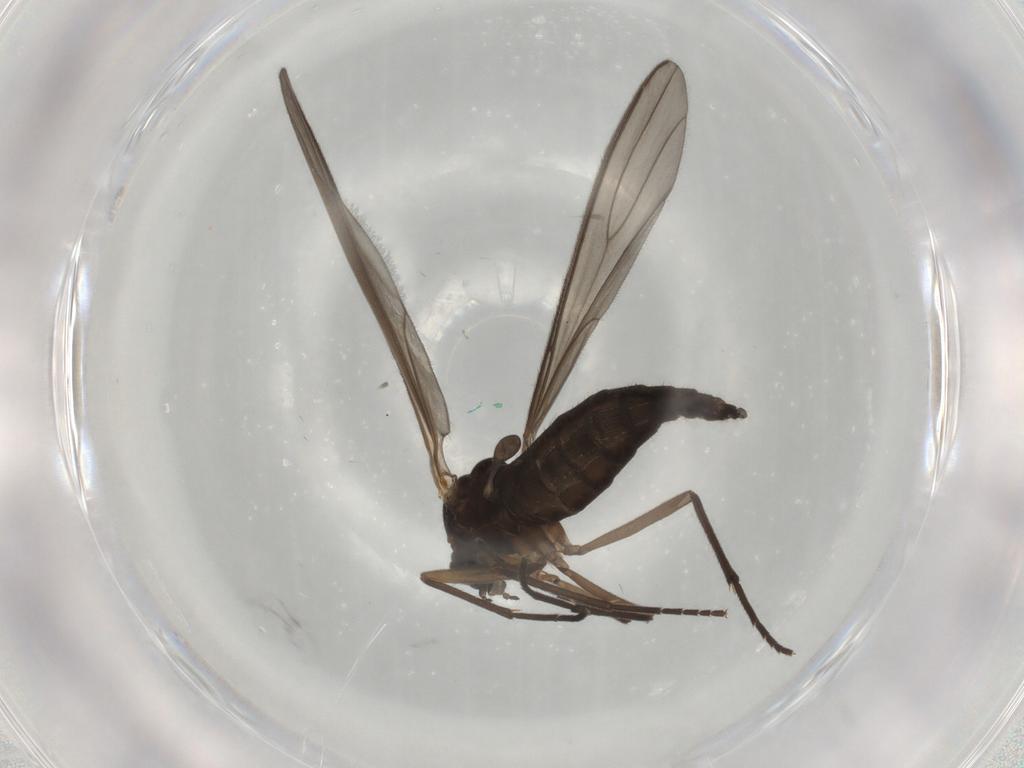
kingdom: Animalia
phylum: Arthropoda
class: Insecta
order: Diptera
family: Sciaridae
